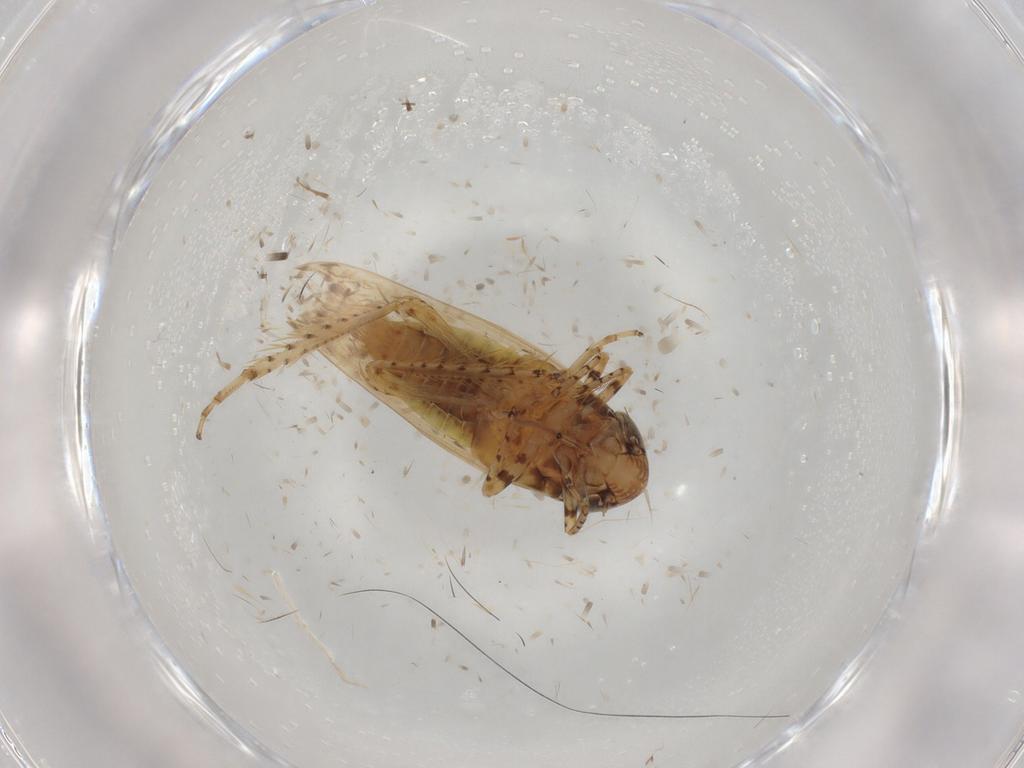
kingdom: Animalia
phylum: Arthropoda
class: Insecta
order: Hemiptera
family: Cicadellidae
